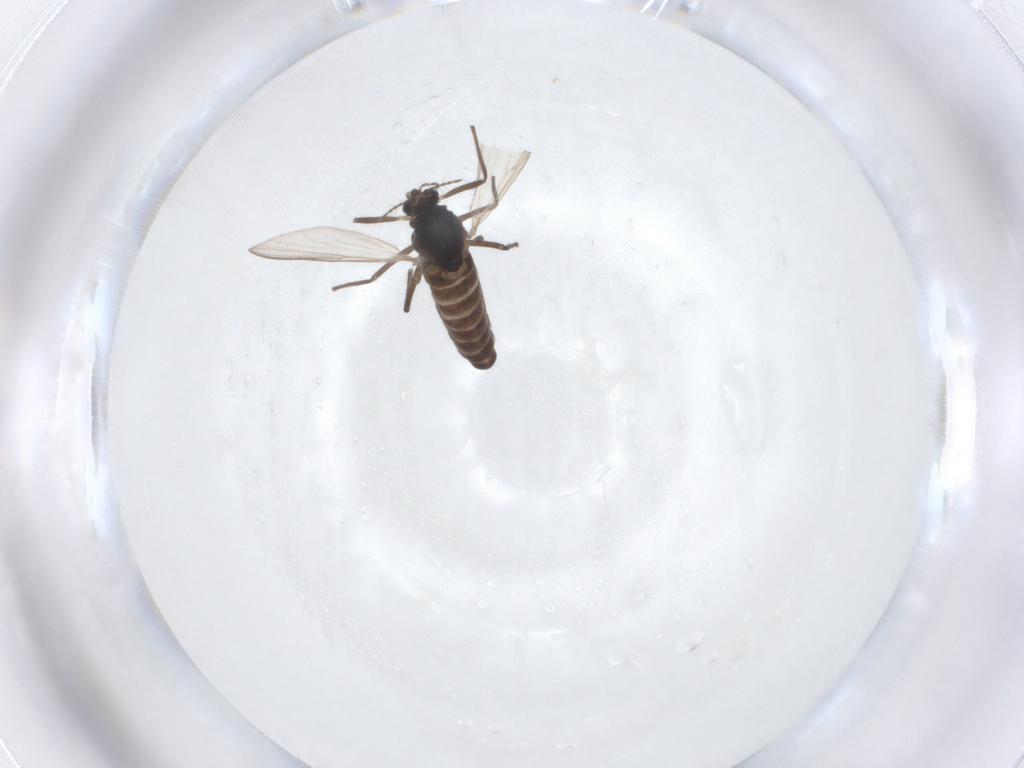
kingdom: Animalia
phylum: Arthropoda
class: Insecta
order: Diptera
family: Chironomidae
